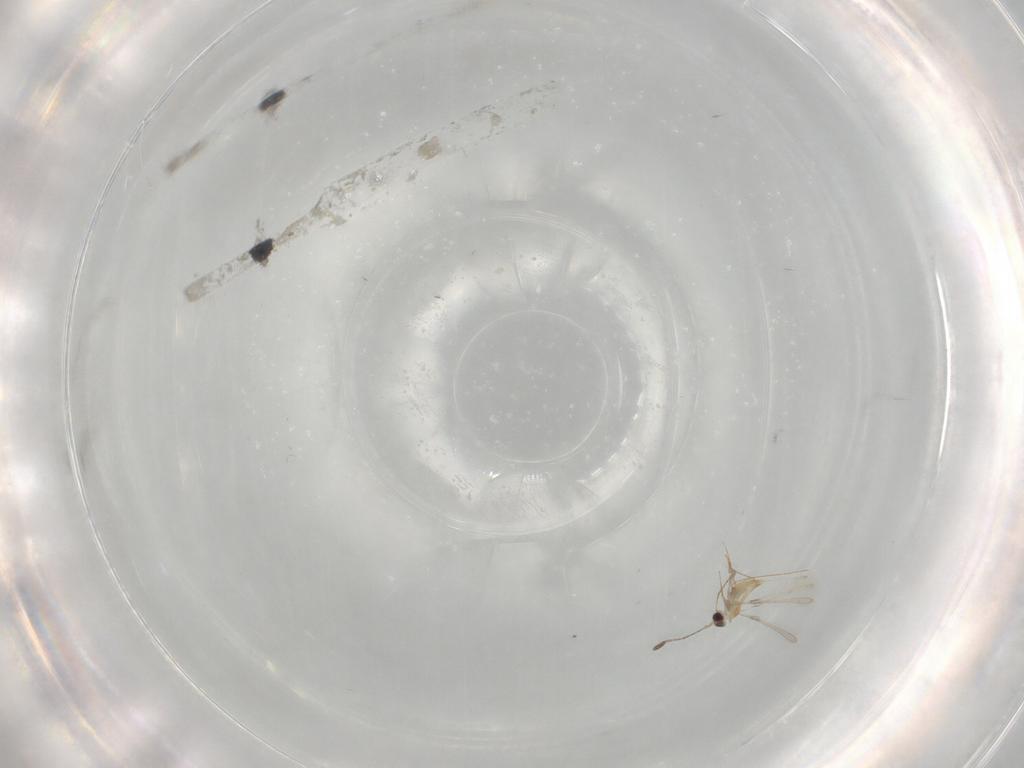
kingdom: Animalia
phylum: Arthropoda
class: Insecta
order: Hymenoptera
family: Mymaridae
